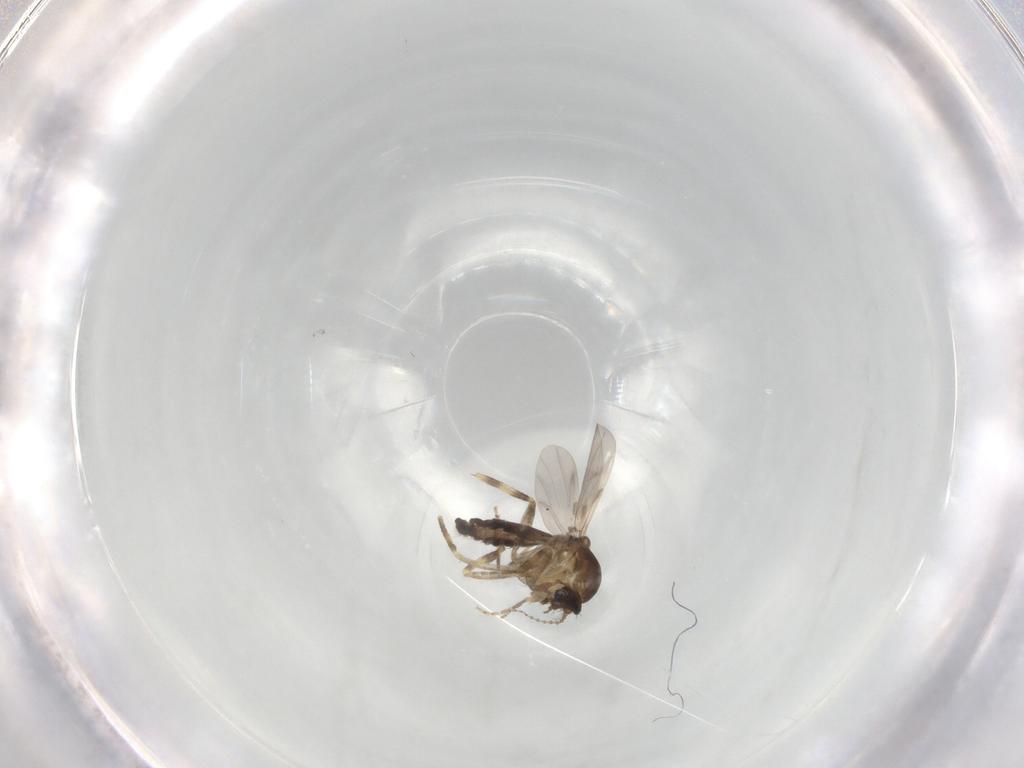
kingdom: Animalia
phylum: Arthropoda
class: Insecta
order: Diptera
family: Ceratopogonidae
